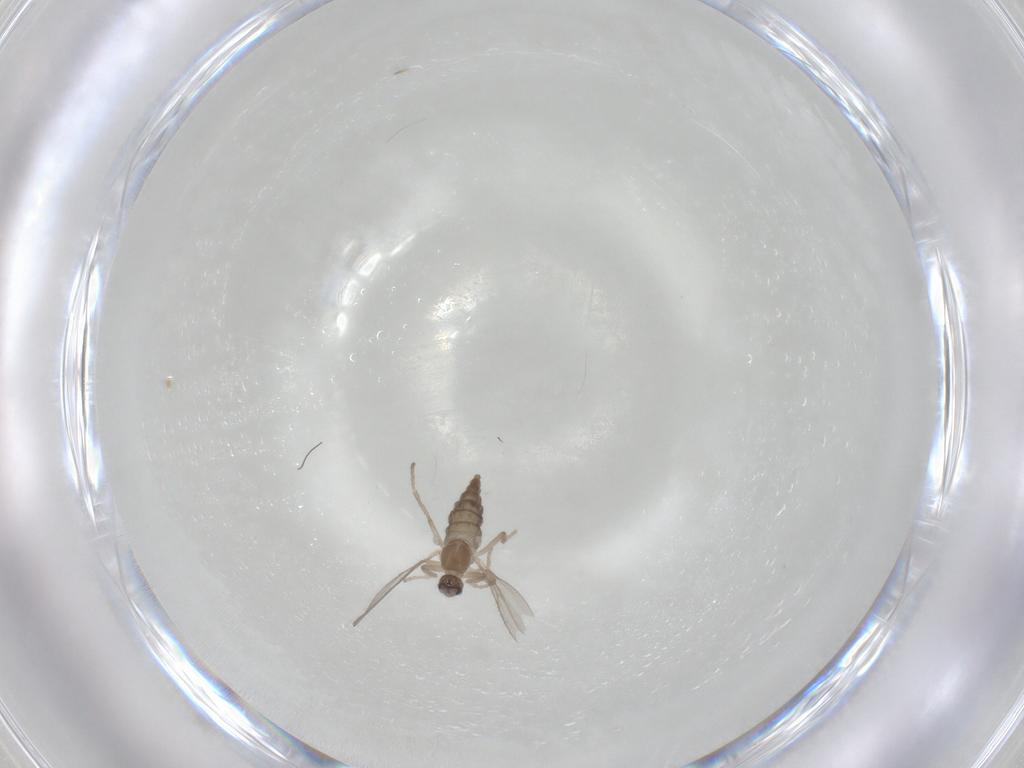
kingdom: Animalia
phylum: Arthropoda
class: Insecta
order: Diptera
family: Cecidomyiidae
